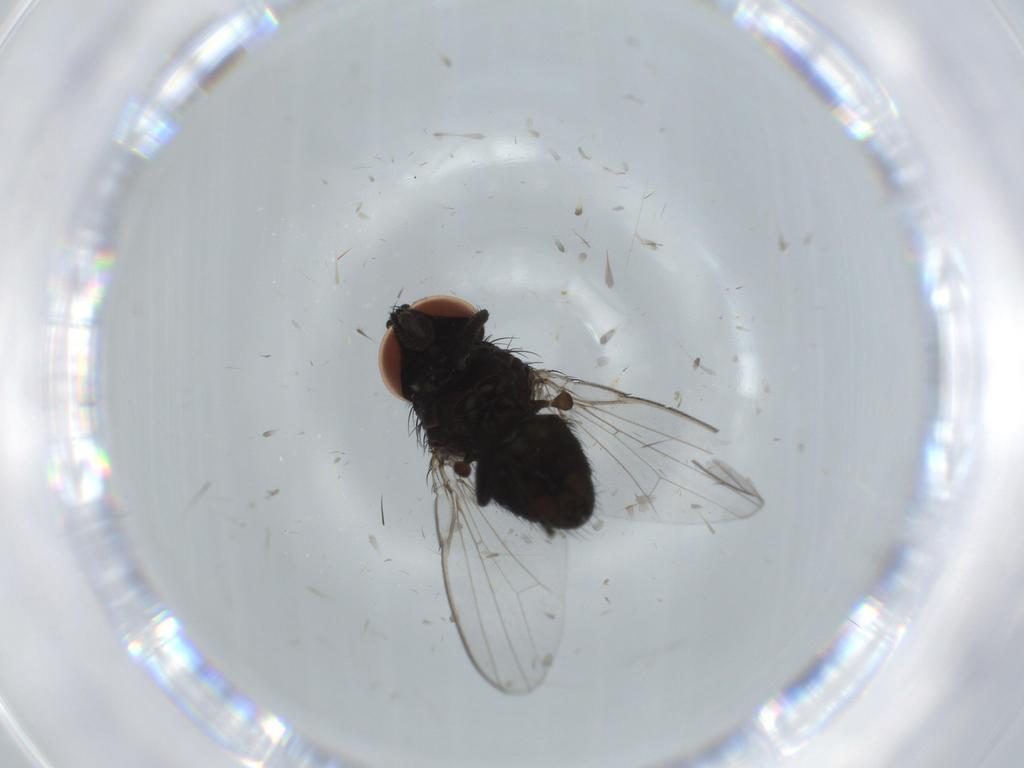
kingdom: Animalia
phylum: Arthropoda
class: Insecta
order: Diptera
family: Milichiidae
